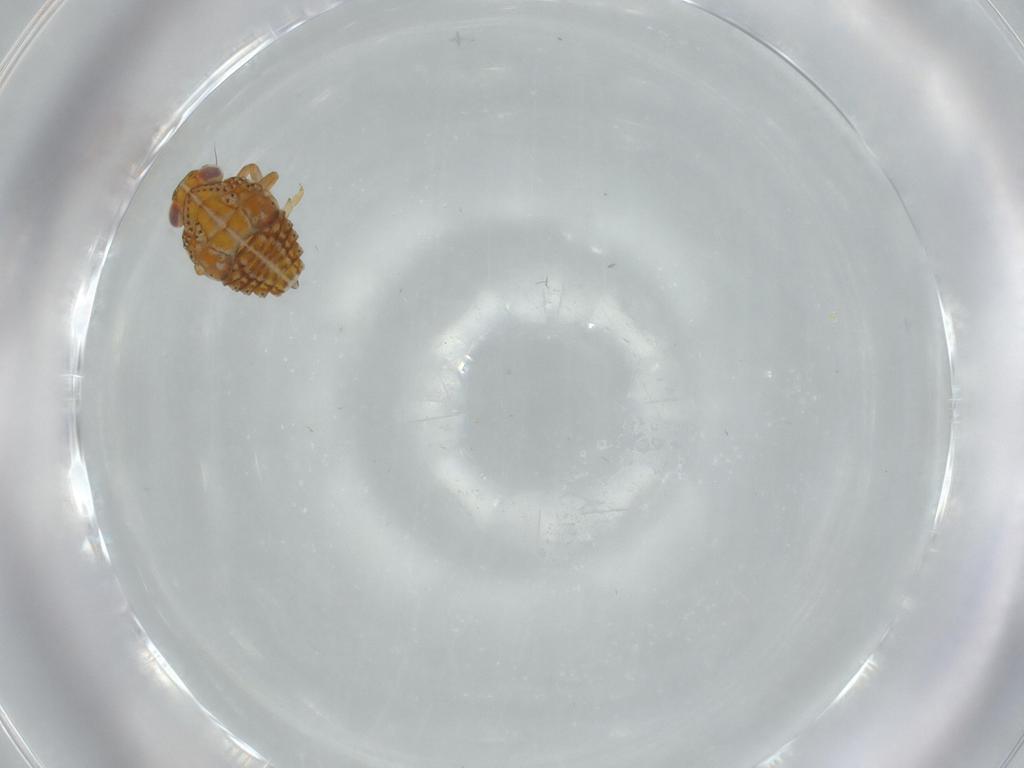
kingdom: Animalia
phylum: Arthropoda
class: Insecta
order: Hemiptera
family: Issidae
